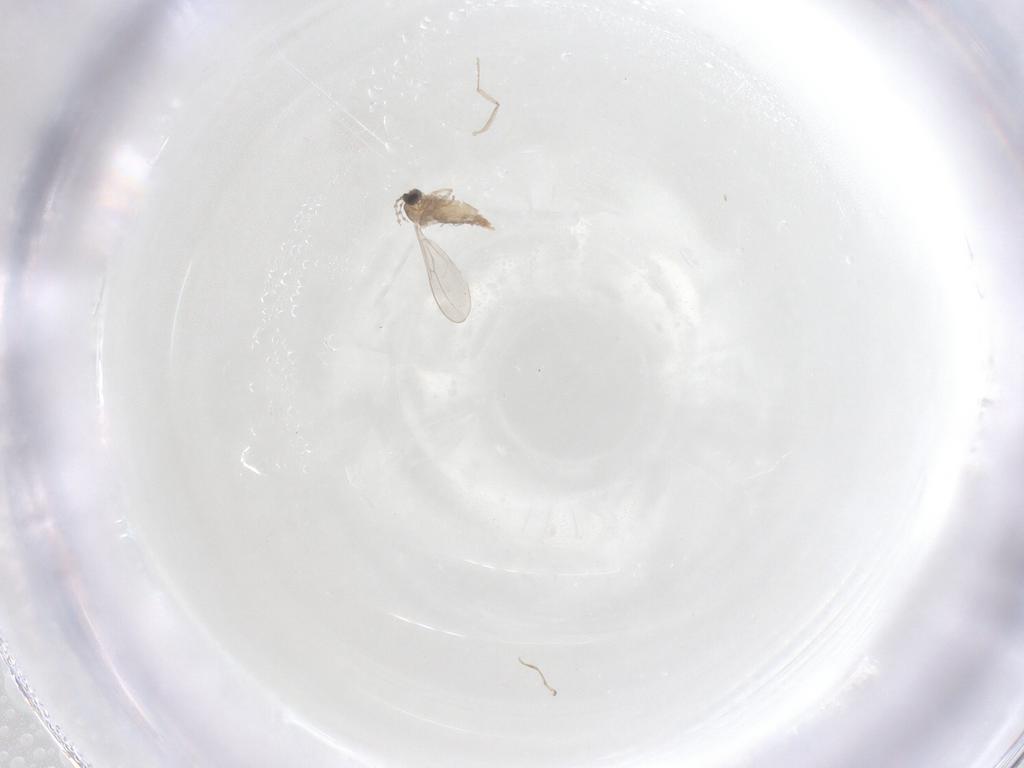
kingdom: Animalia
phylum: Arthropoda
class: Insecta
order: Diptera
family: Cecidomyiidae
